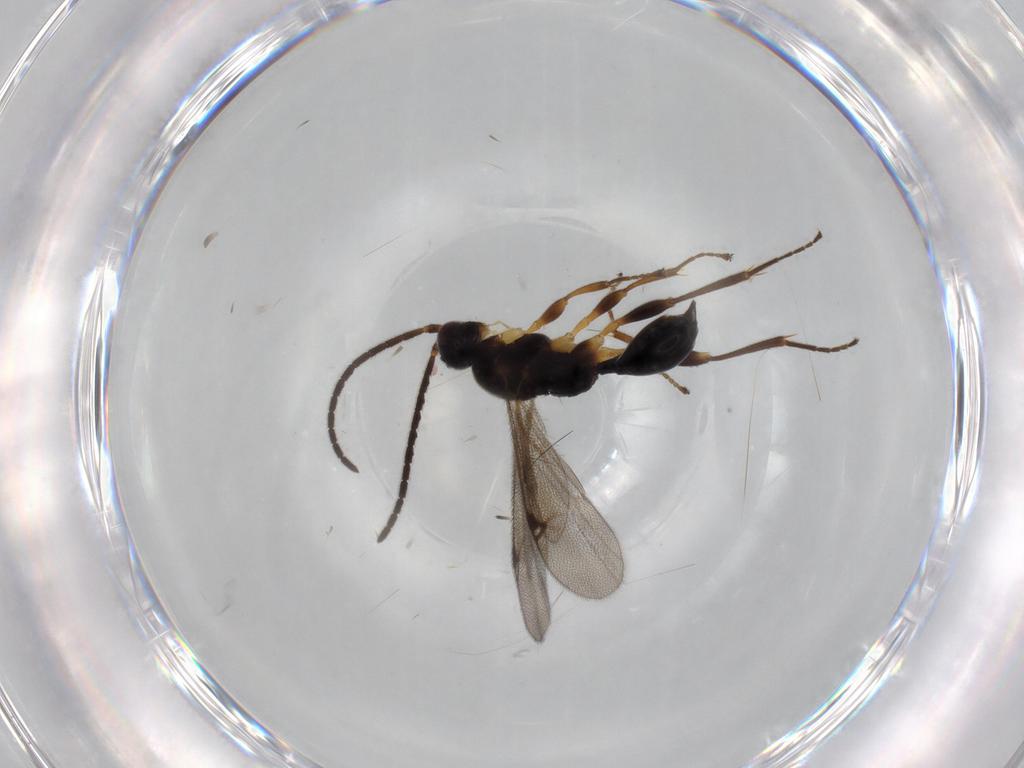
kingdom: Animalia
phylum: Arthropoda
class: Insecta
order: Hymenoptera
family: Proctotrupidae
